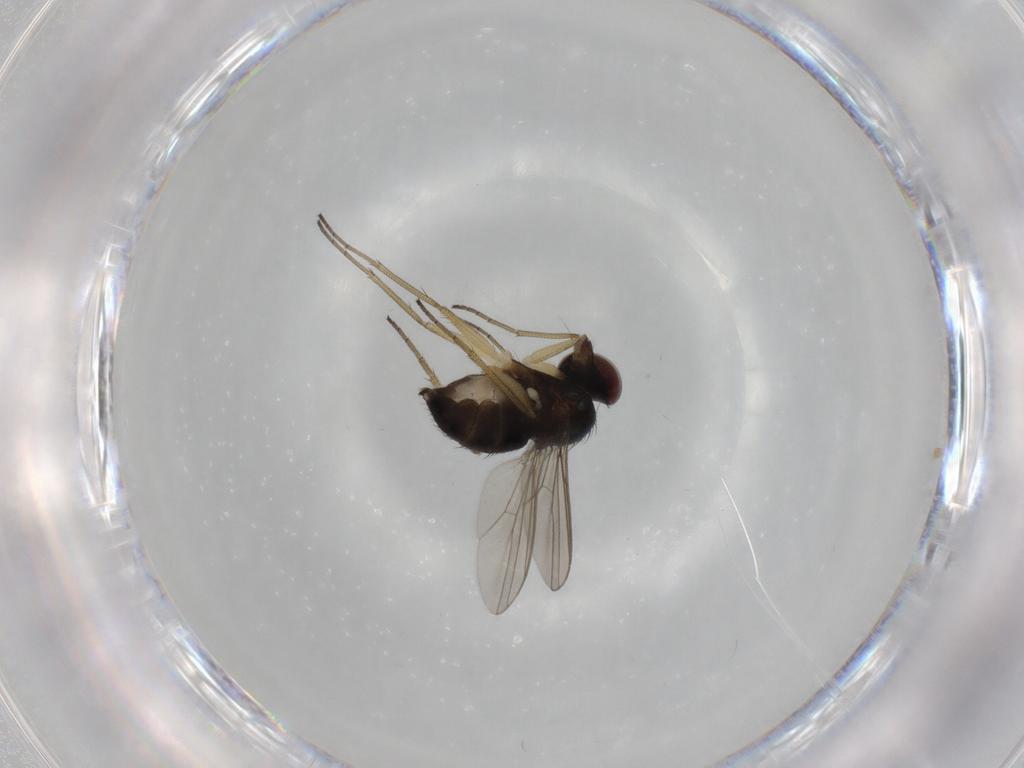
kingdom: Animalia
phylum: Arthropoda
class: Insecta
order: Diptera
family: Dolichopodidae
